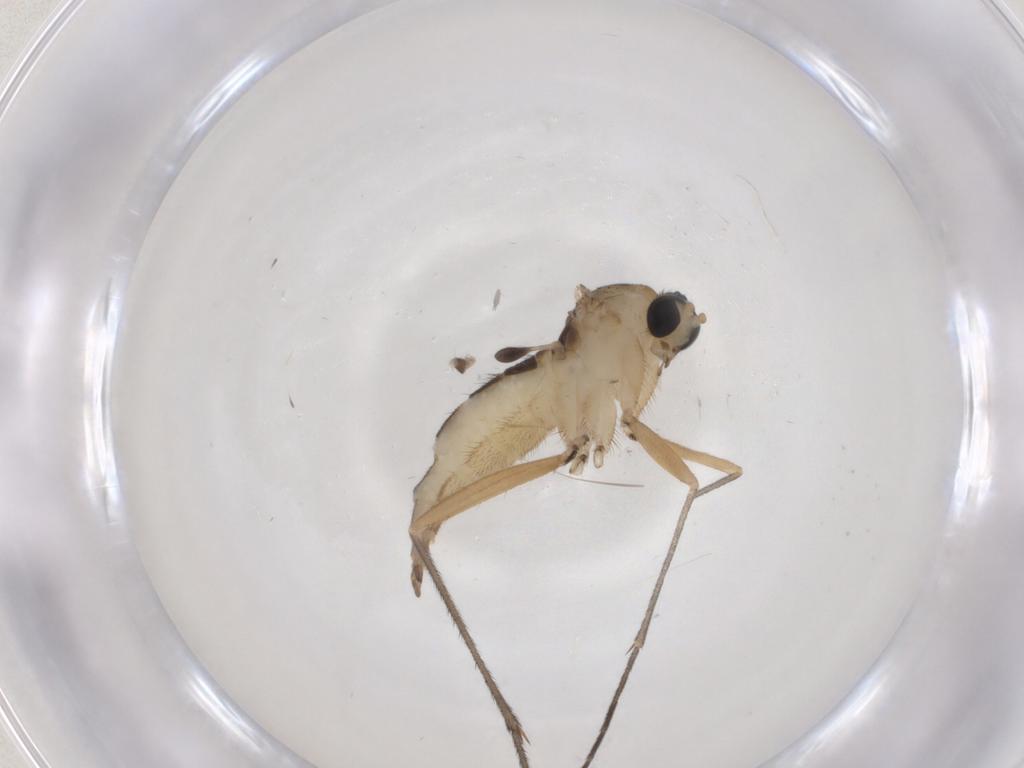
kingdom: Animalia
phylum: Arthropoda
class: Insecta
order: Diptera
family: Sciaridae
